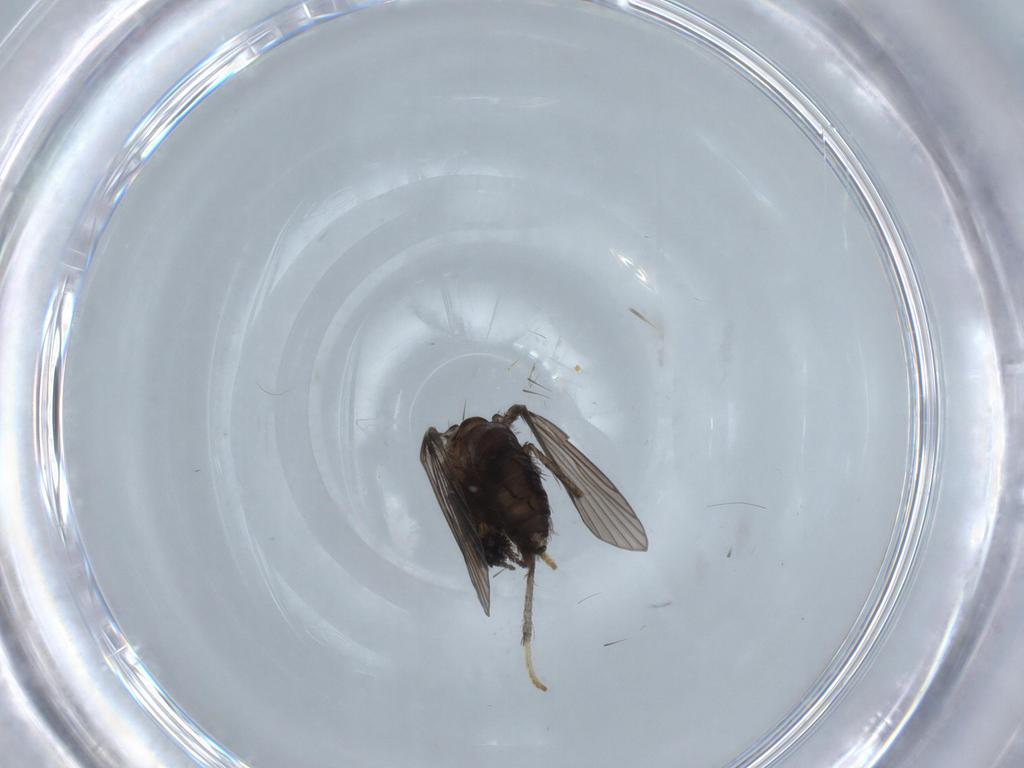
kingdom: Animalia
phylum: Arthropoda
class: Insecta
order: Diptera
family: Psychodidae
